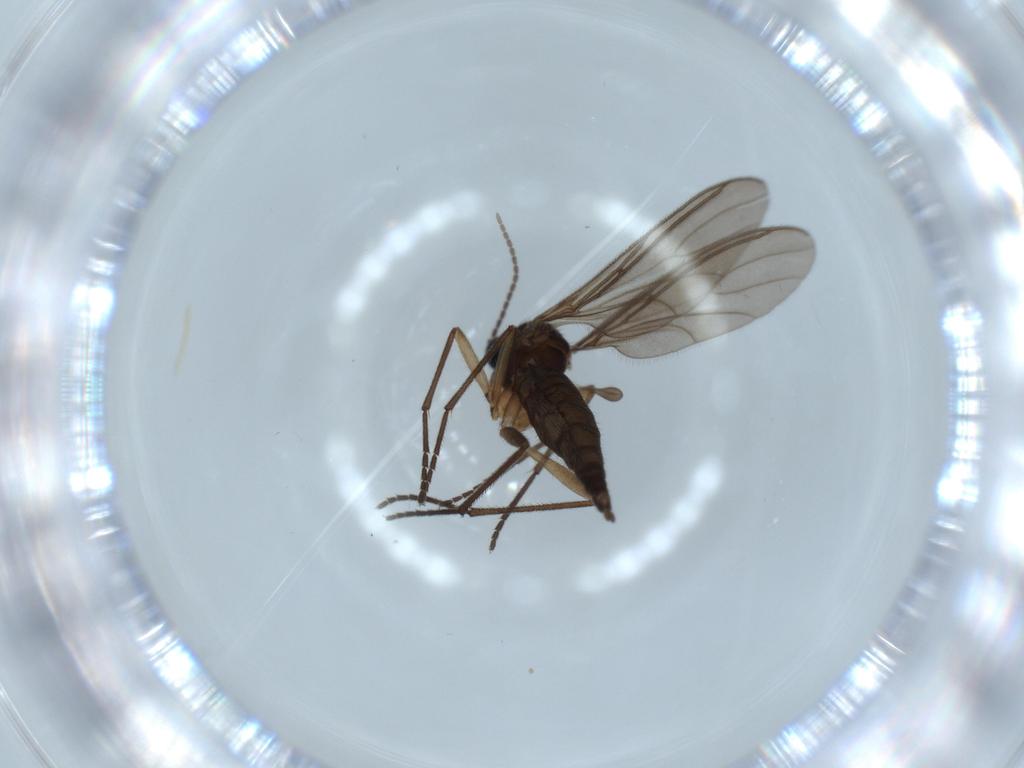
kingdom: Animalia
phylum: Arthropoda
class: Insecta
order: Diptera
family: Sciaridae
